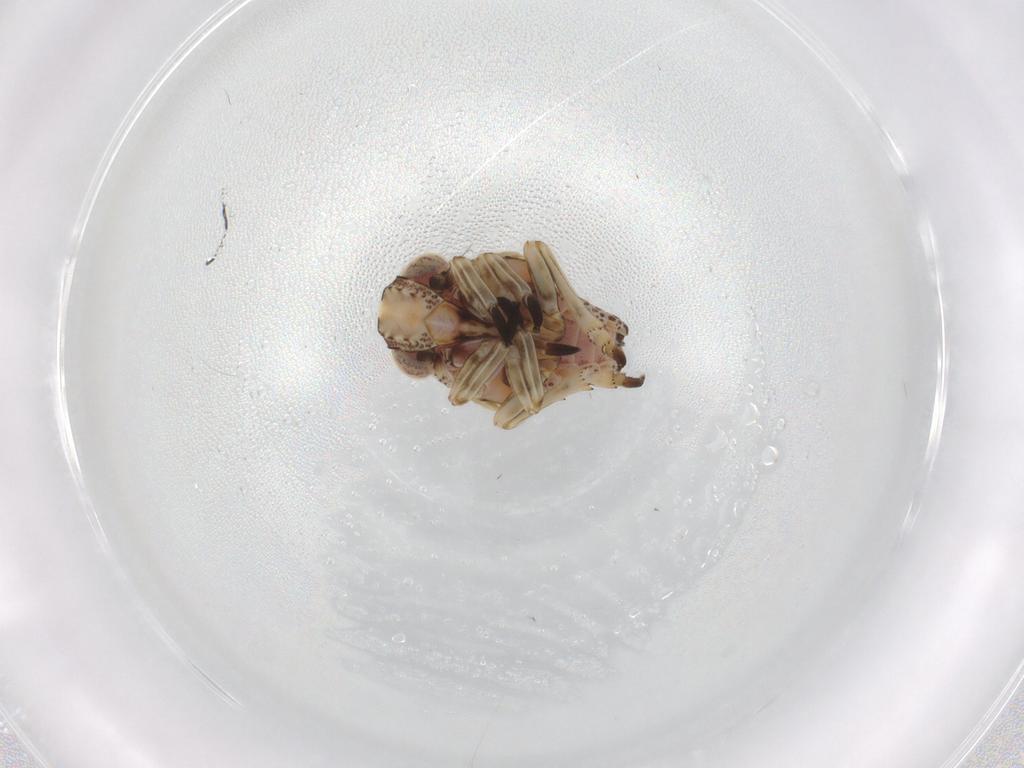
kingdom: Animalia
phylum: Arthropoda
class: Insecta
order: Hemiptera
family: Tropiduchidae
